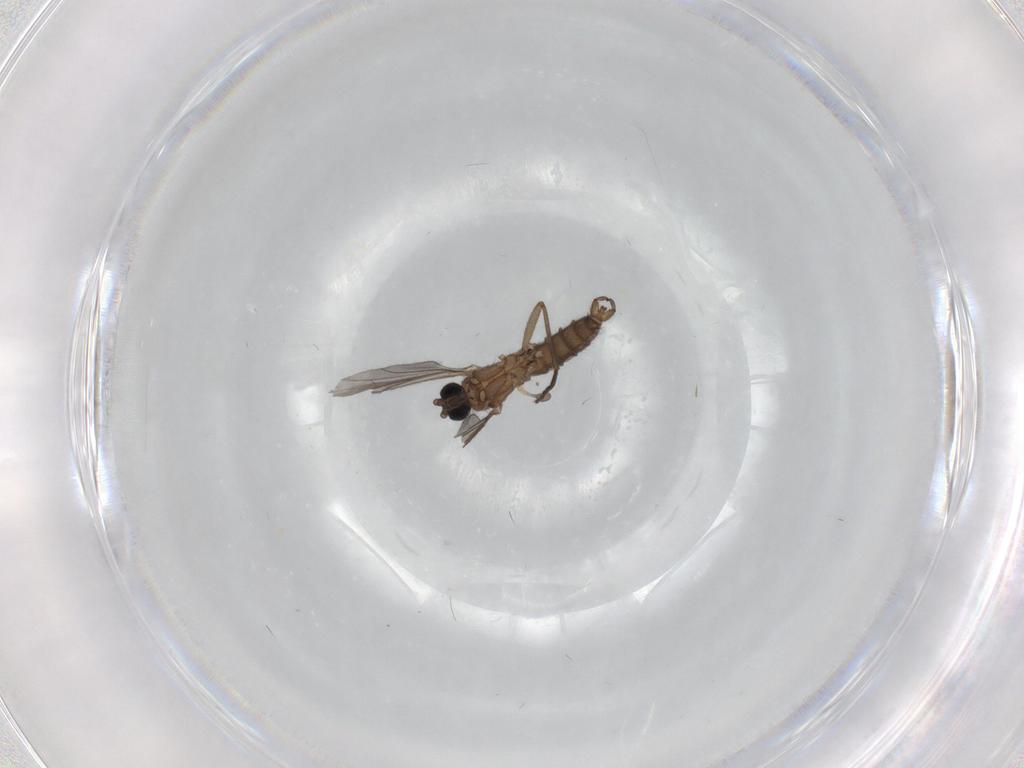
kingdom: Animalia
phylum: Arthropoda
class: Insecta
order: Diptera
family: Sciaridae
